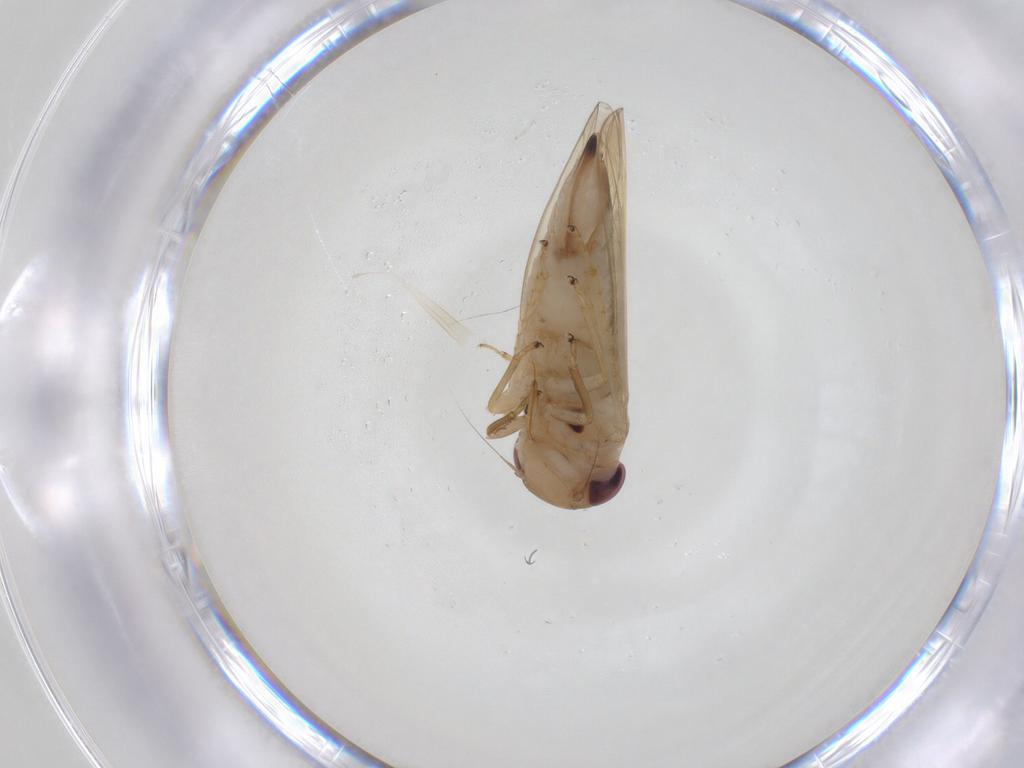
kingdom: Animalia
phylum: Arthropoda
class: Insecta
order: Hemiptera
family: Cicadellidae
